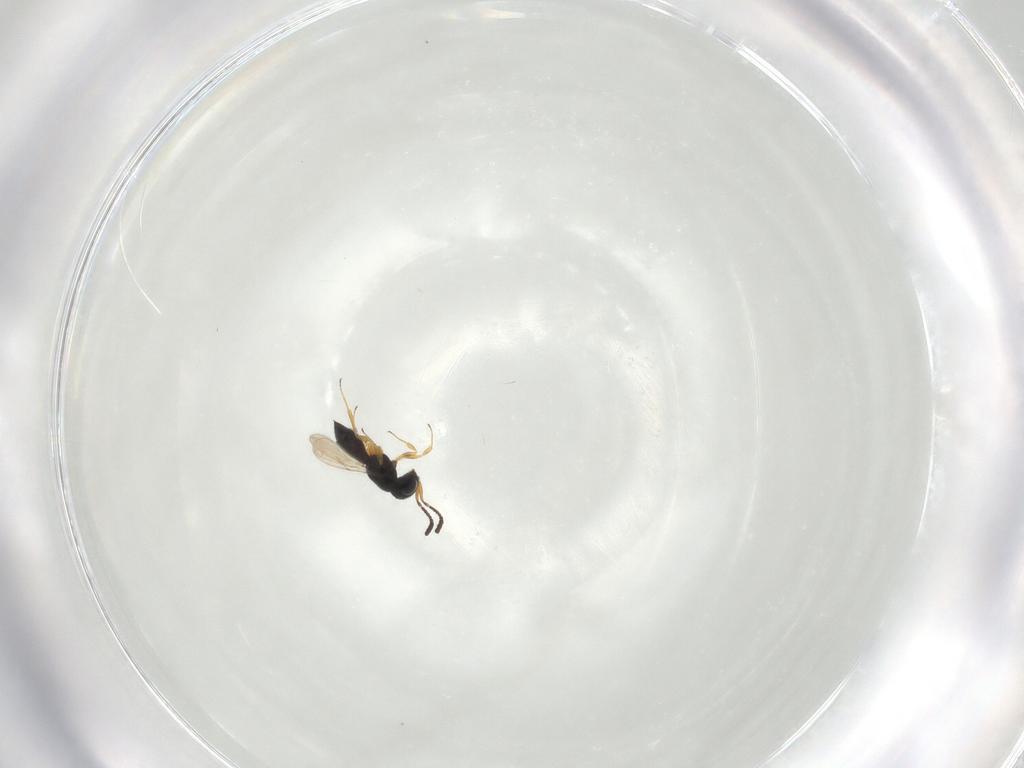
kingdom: Animalia
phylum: Arthropoda
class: Insecta
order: Hymenoptera
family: Scelionidae
